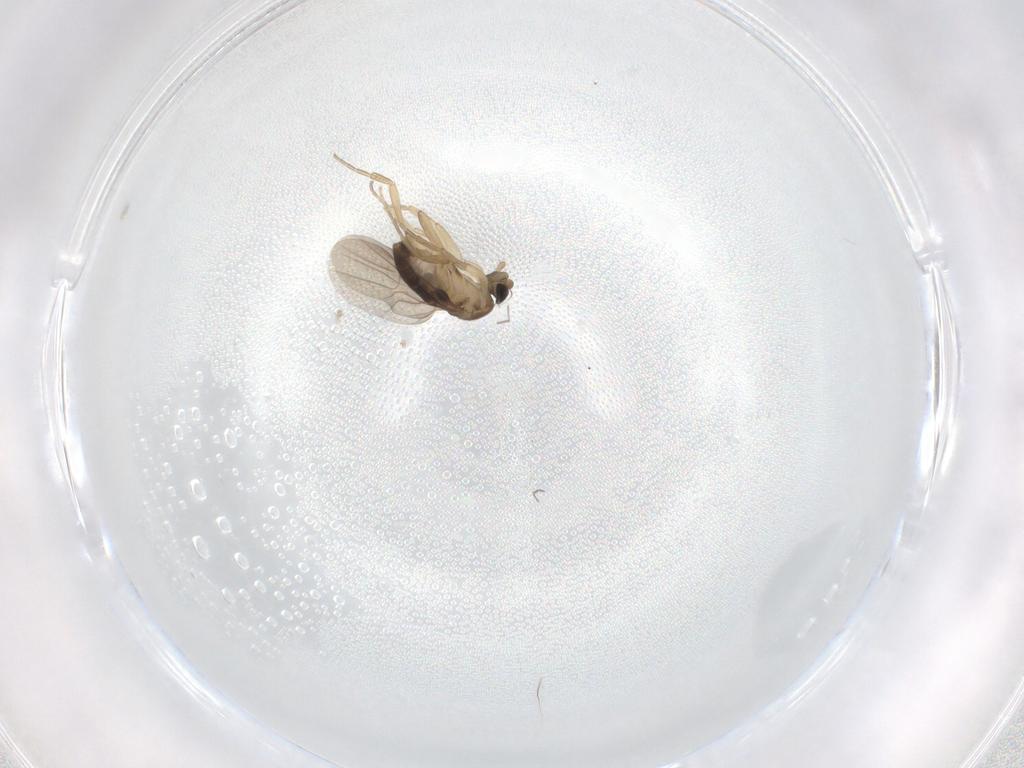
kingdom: Animalia
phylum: Arthropoda
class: Insecta
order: Diptera
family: Phoridae
